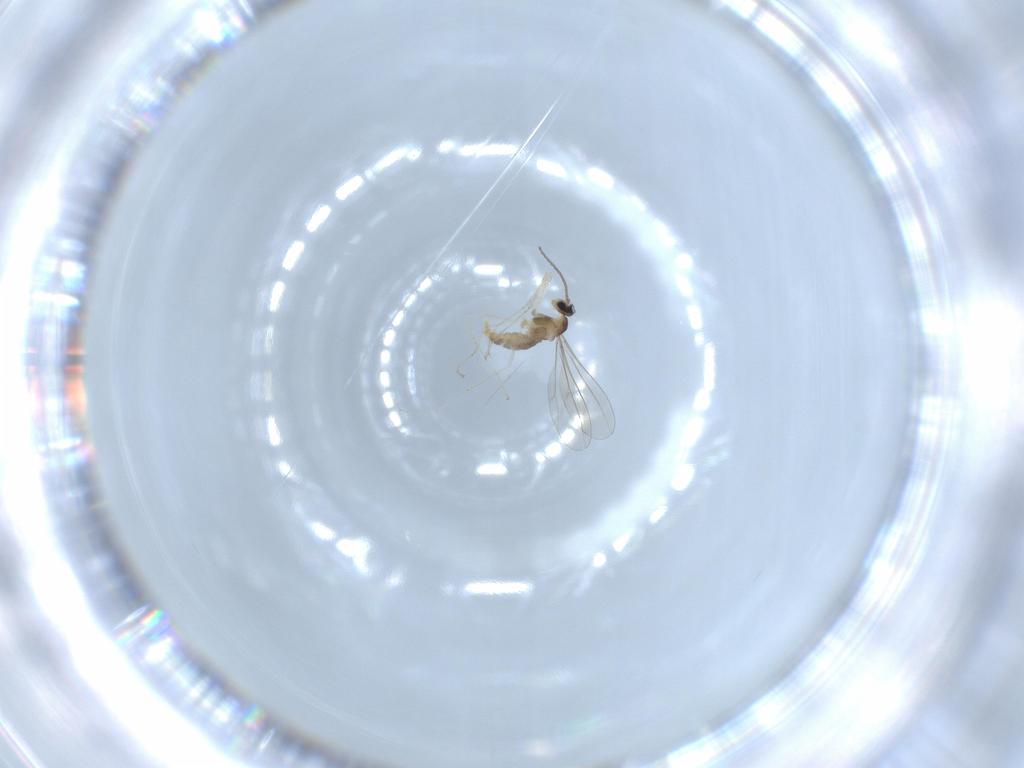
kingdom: Animalia
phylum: Arthropoda
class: Insecta
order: Diptera
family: Cecidomyiidae
